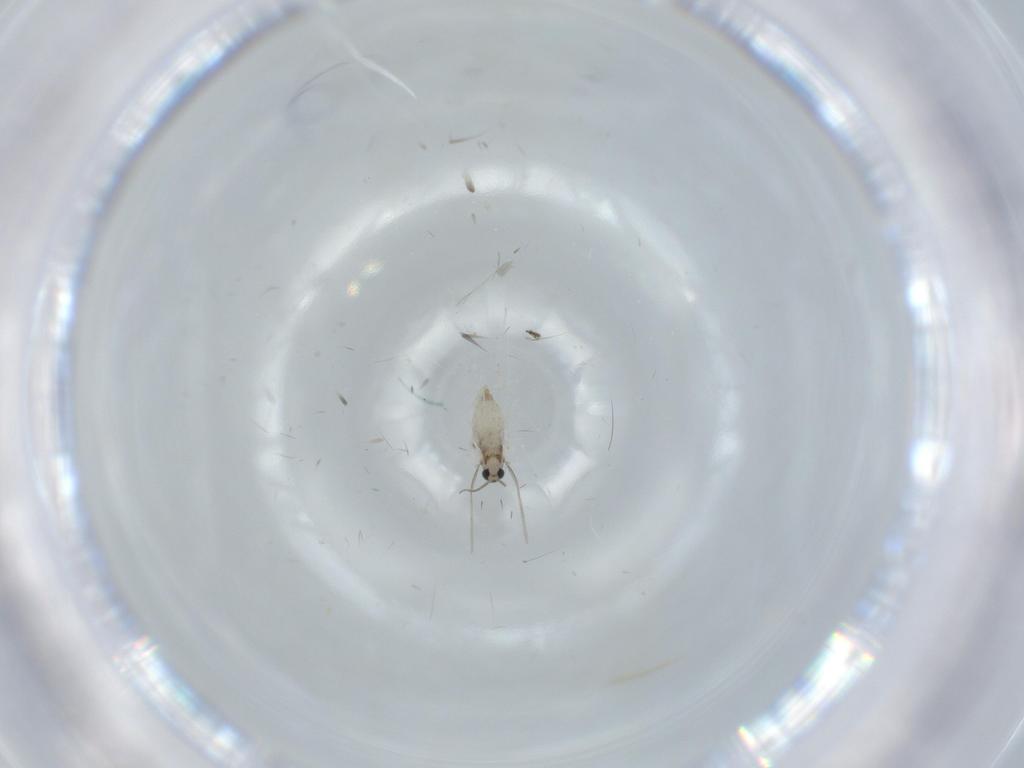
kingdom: Animalia
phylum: Arthropoda
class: Insecta
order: Diptera
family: Cecidomyiidae
